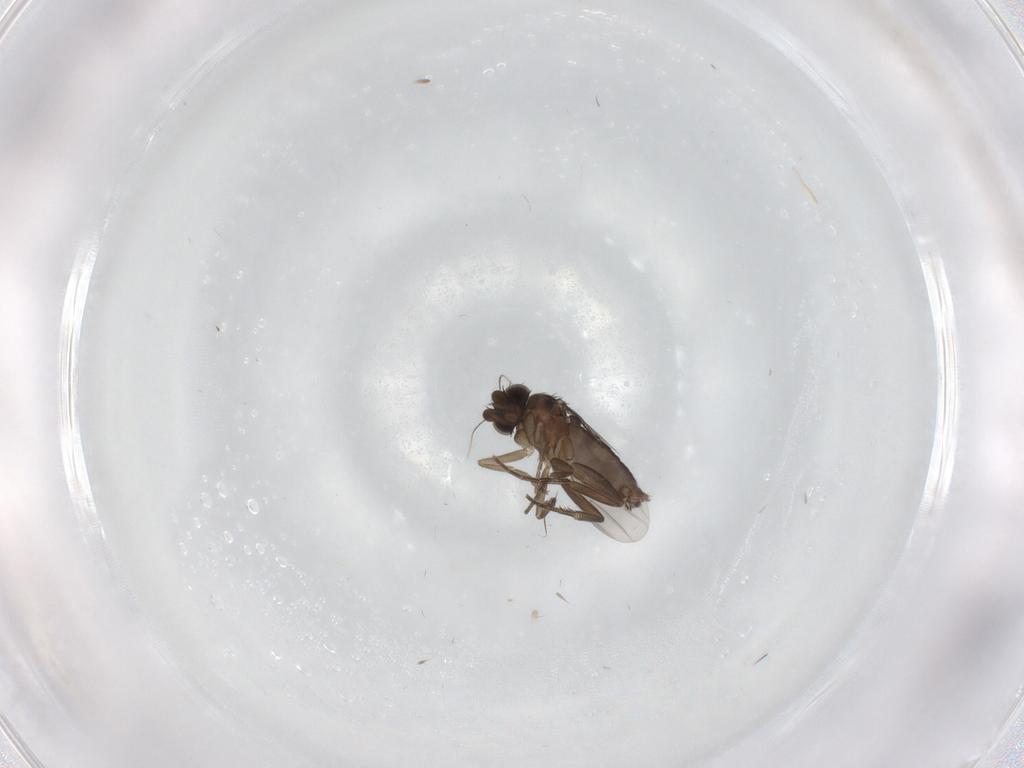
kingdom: Animalia
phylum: Arthropoda
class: Insecta
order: Diptera
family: Phoridae
